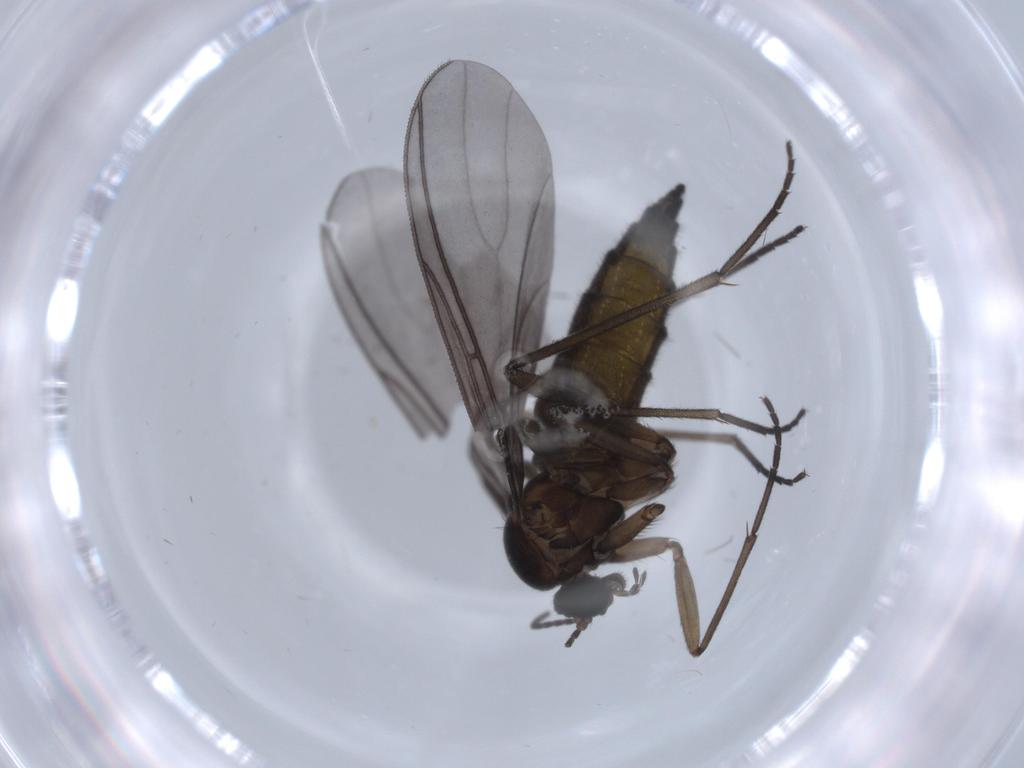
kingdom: Animalia
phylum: Arthropoda
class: Insecta
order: Diptera
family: Sciaridae
